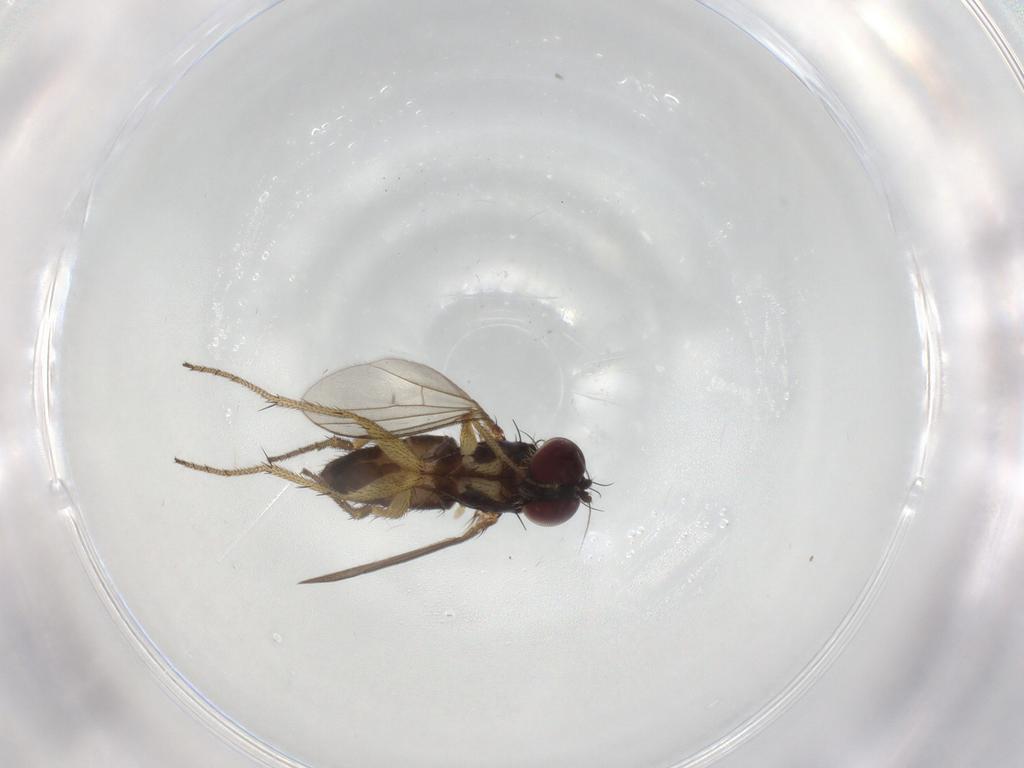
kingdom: Animalia
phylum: Arthropoda
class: Insecta
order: Diptera
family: Dolichopodidae
